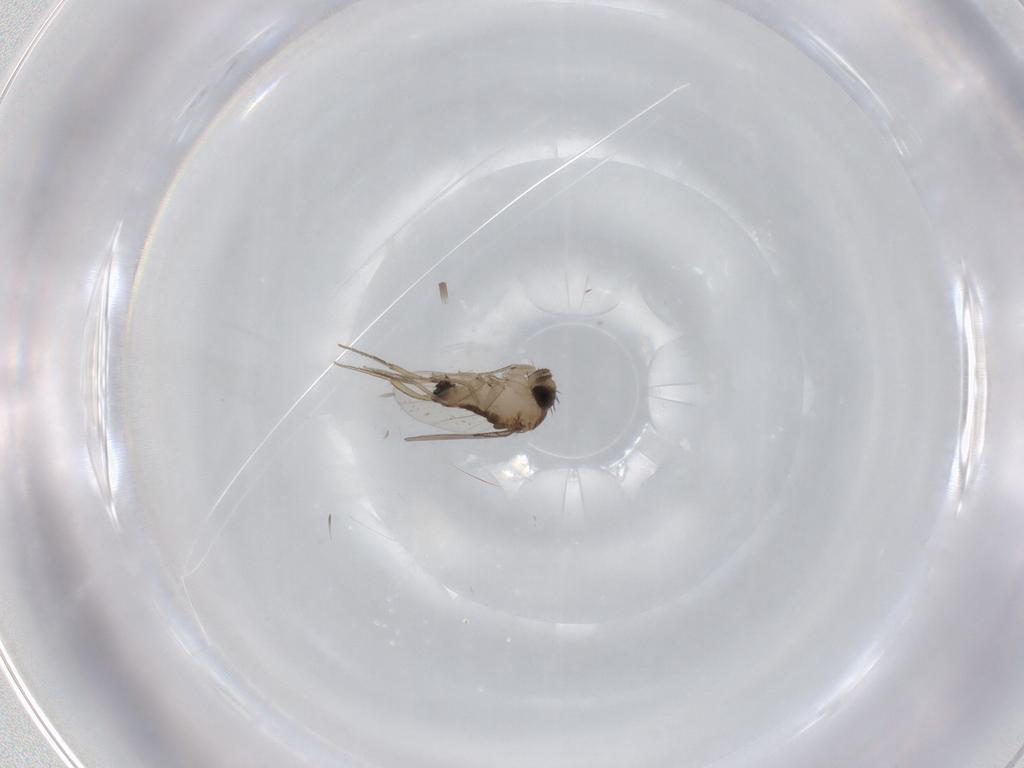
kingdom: Animalia
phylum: Arthropoda
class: Insecta
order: Diptera
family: Phoridae
